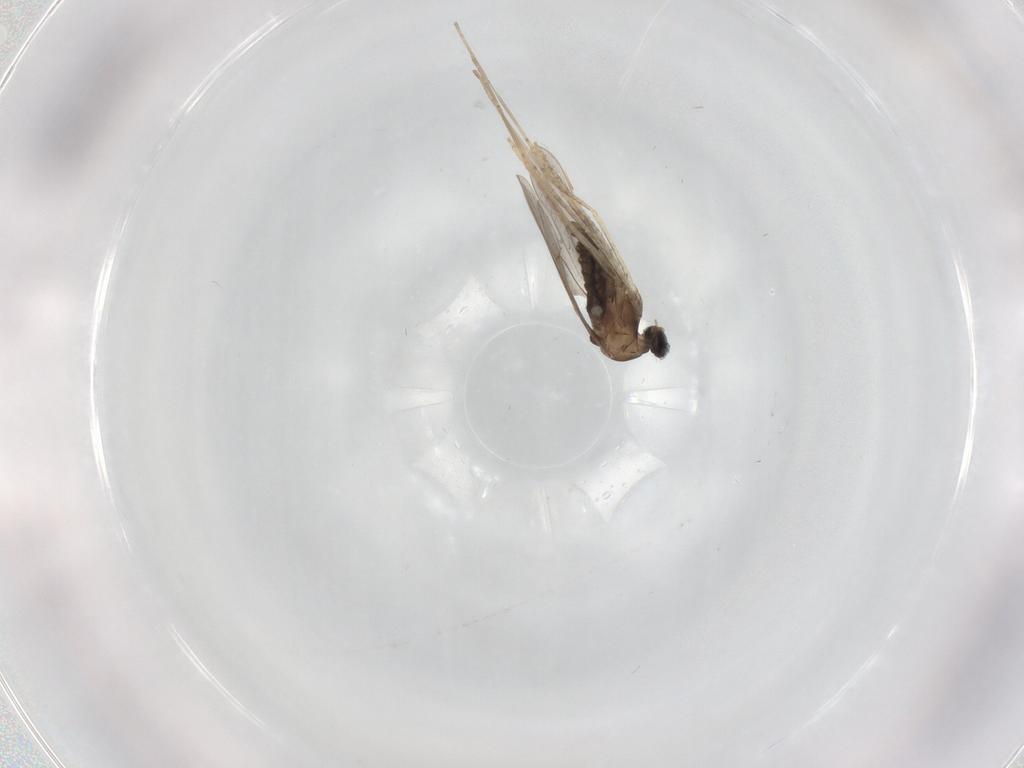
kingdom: Animalia
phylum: Arthropoda
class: Insecta
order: Diptera
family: Cecidomyiidae
